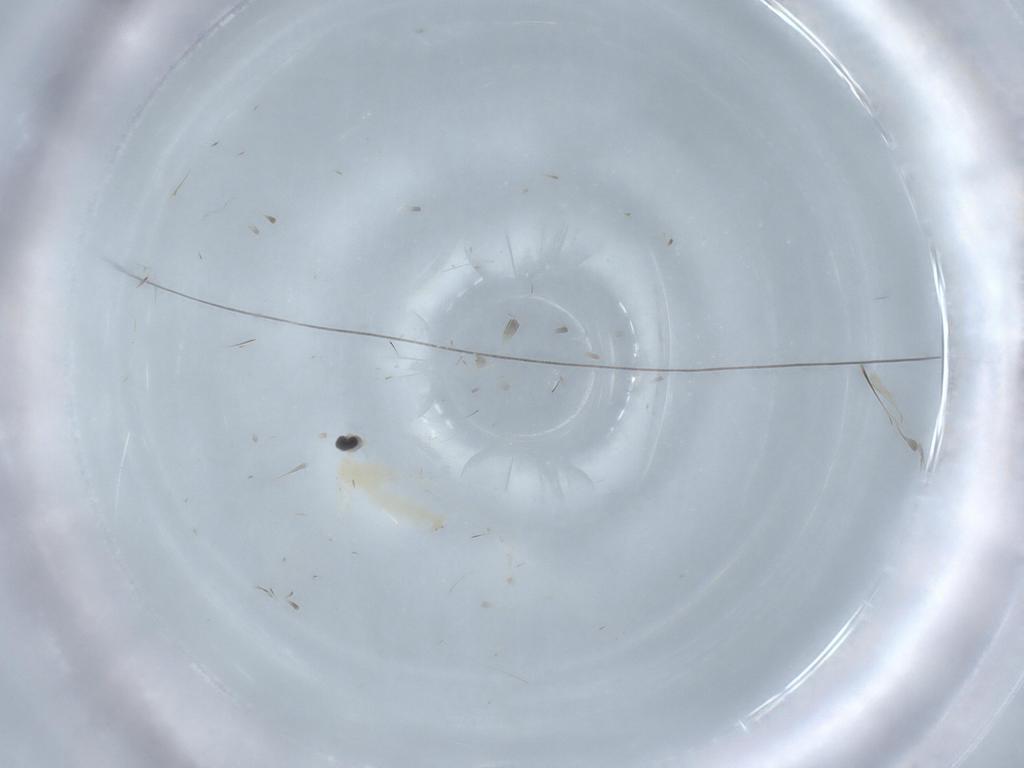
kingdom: Animalia
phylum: Arthropoda
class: Insecta
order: Diptera
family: Cecidomyiidae
